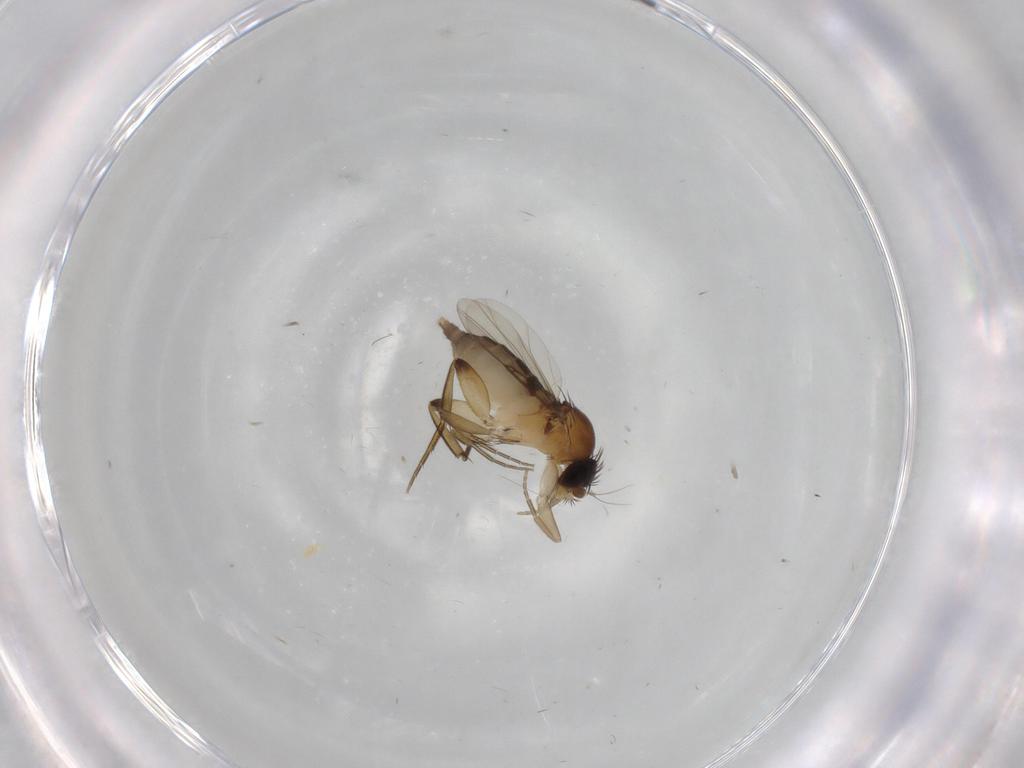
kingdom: Animalia
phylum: Arthropoda
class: Insecta
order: Diptera
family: Phoridae
